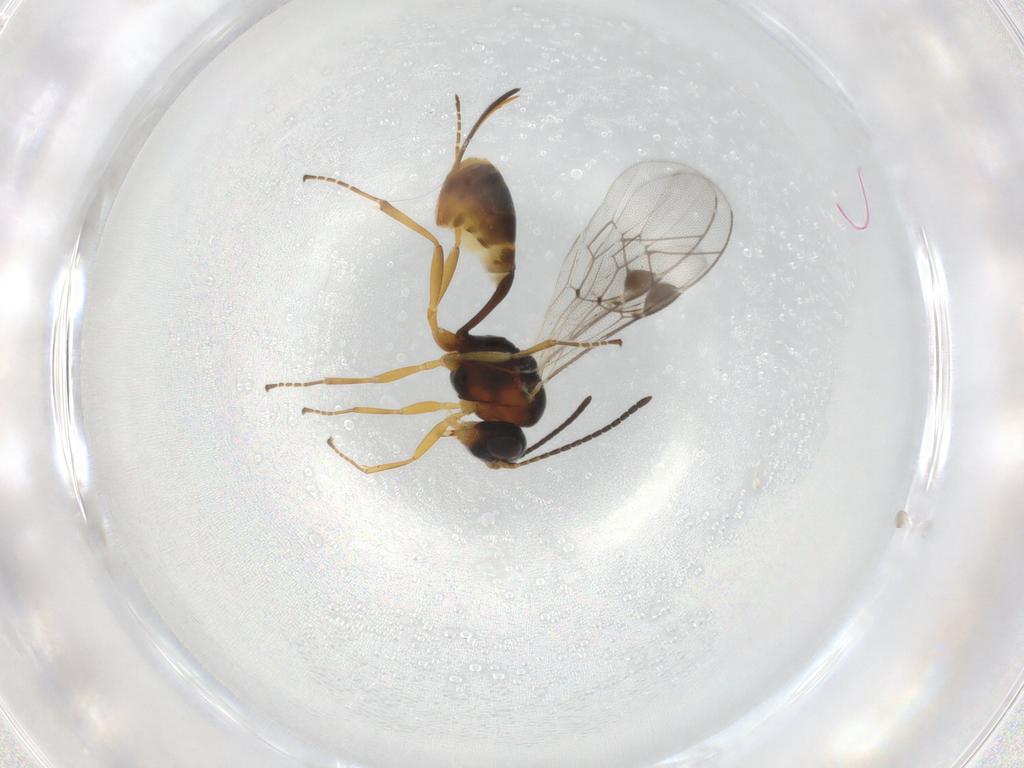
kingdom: Animalia
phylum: Arthropoda
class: Insecta
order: Hymenoptera
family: Ichneumonidae
